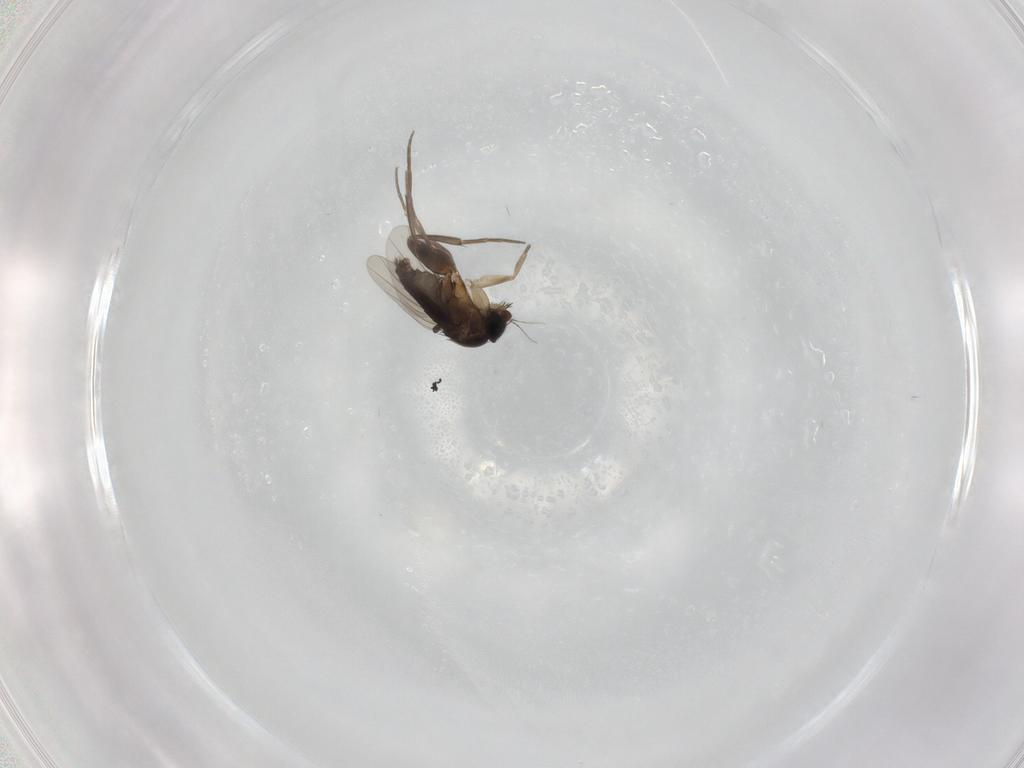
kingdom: Animalia
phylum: Arthropoda
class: Insecta
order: Diptera
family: Phoridae
